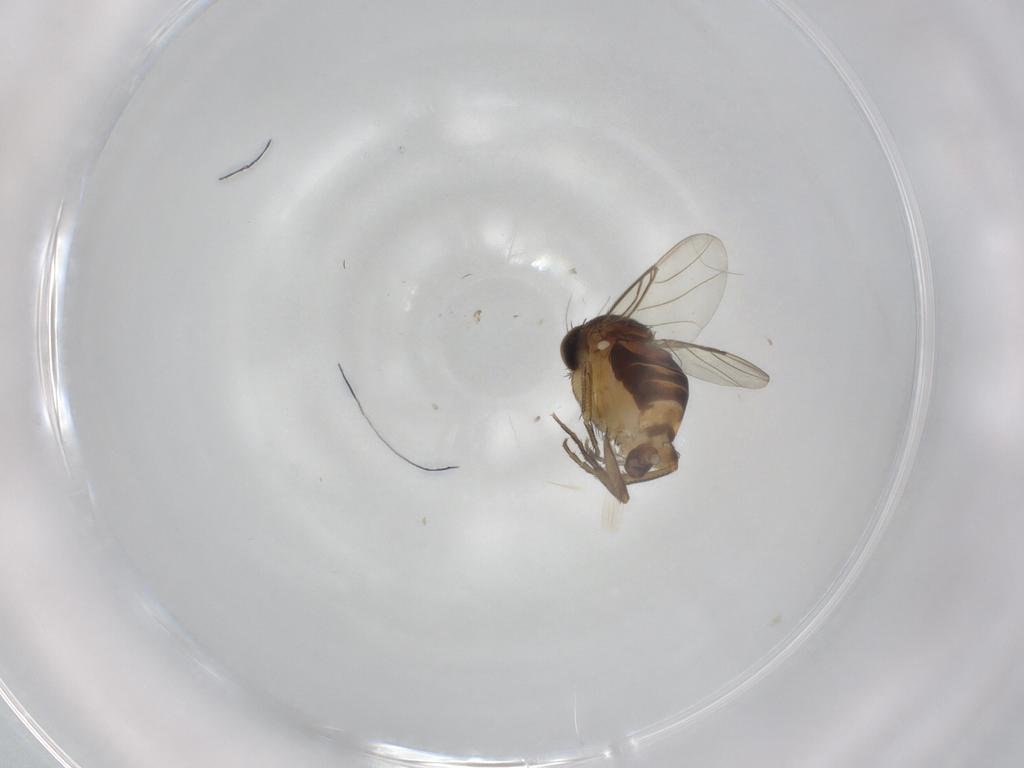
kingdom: Animalia
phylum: Arthropoda
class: Insecta
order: Diptera
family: Phoridae
